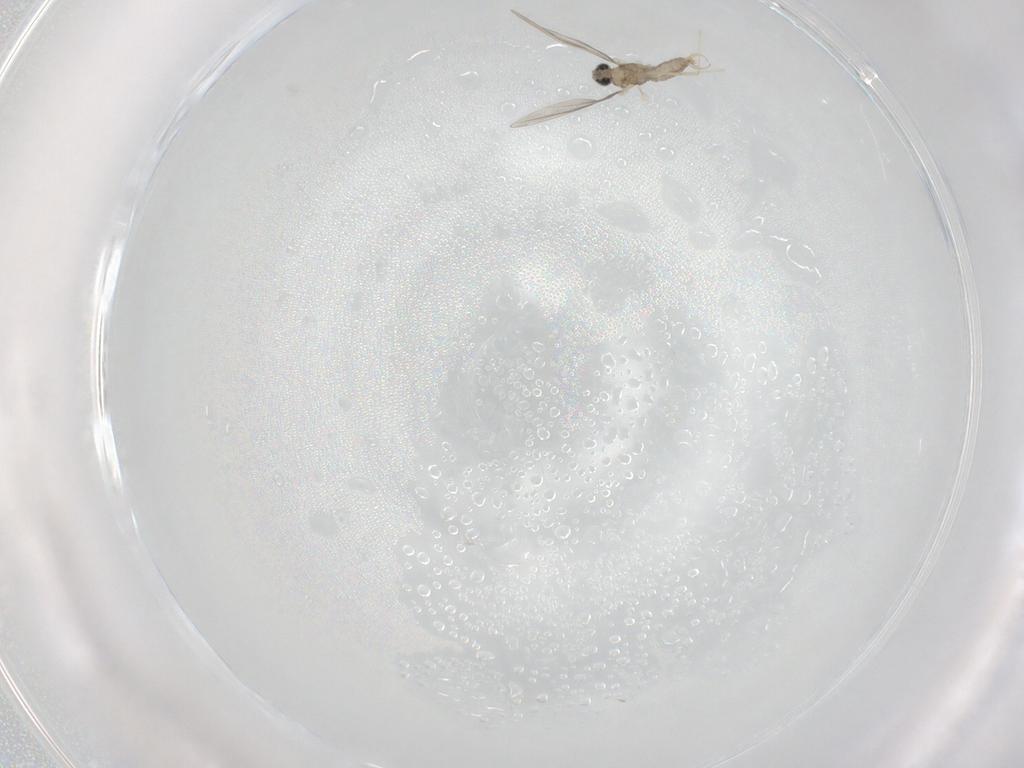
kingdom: Animalia
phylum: Arthropoda
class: Insecta
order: Diptera
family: Cecidomyiidae
